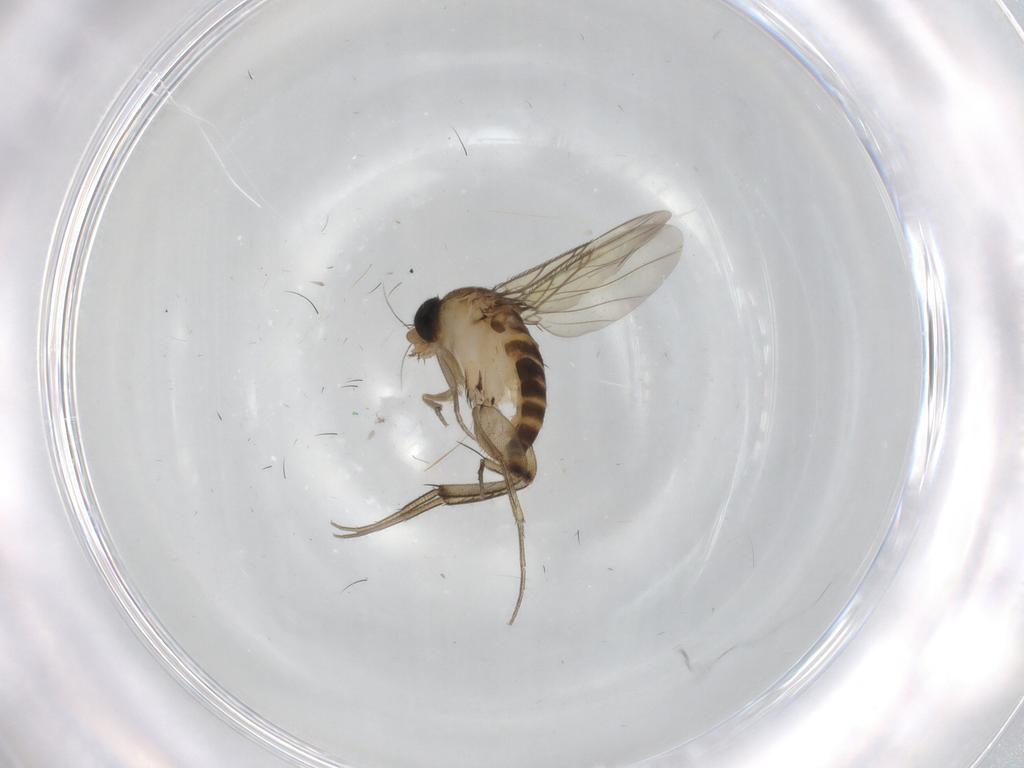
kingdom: Animalia
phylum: Arthropoda
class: Insecta
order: Diptera
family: Phoridae
